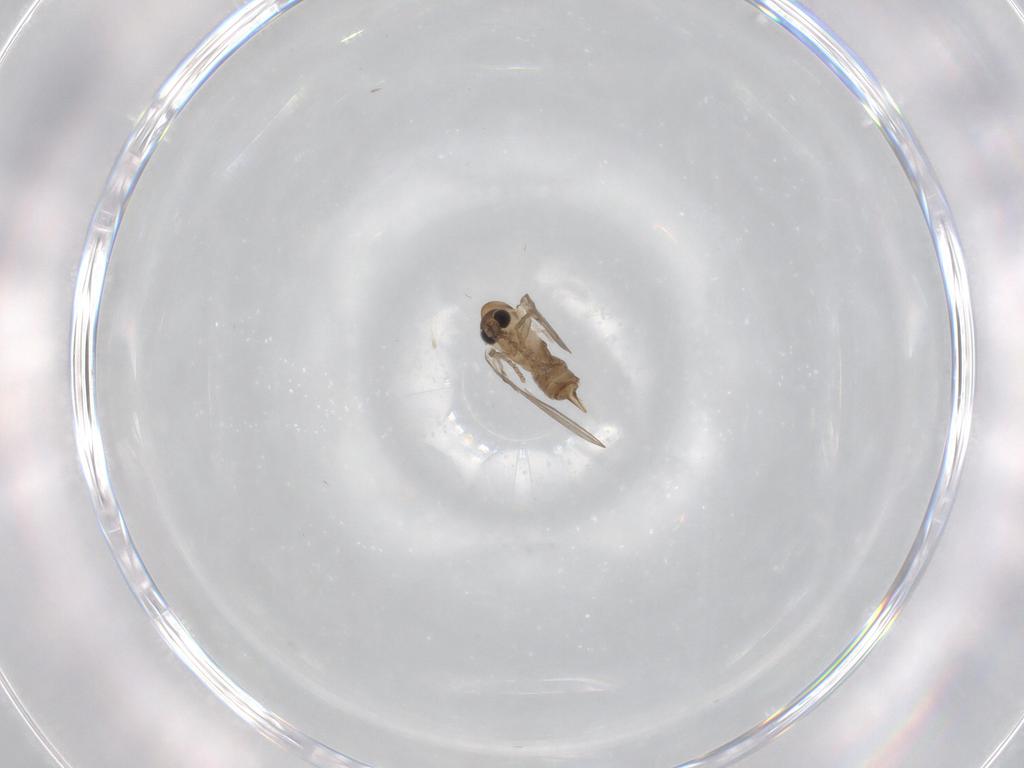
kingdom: Animalia
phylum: Arthropoda
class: Insecta
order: Diptera
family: Psychodidae
